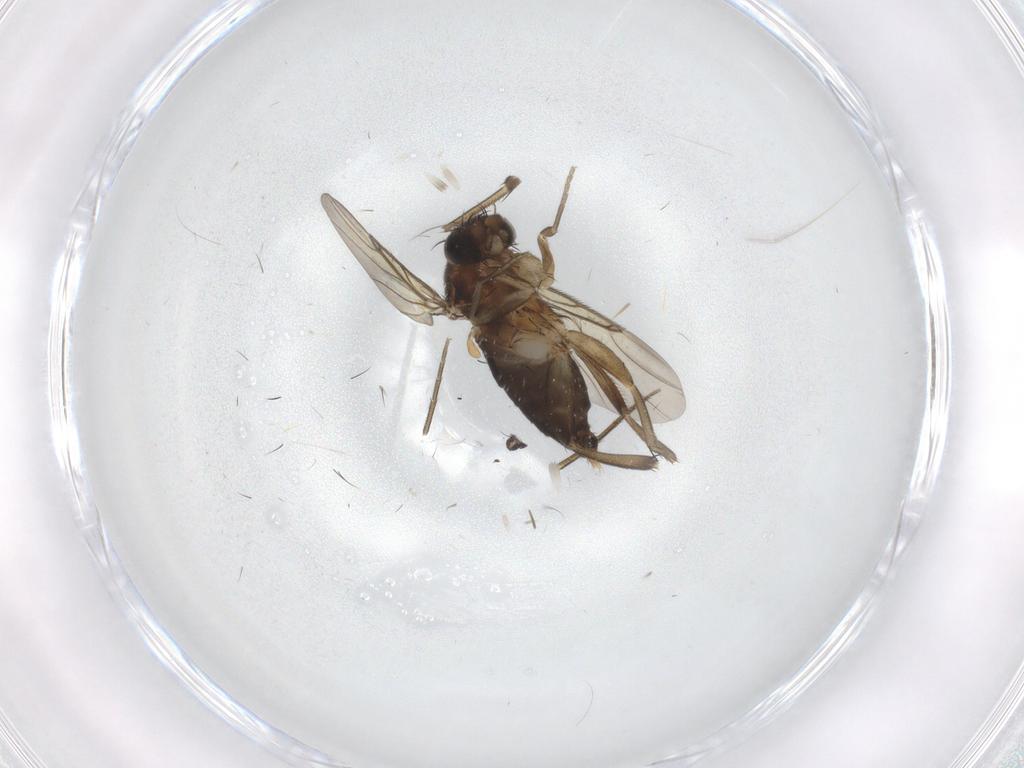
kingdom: Animalia
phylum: Arthropoda
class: Insecta
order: Diptera
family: Phoridae
